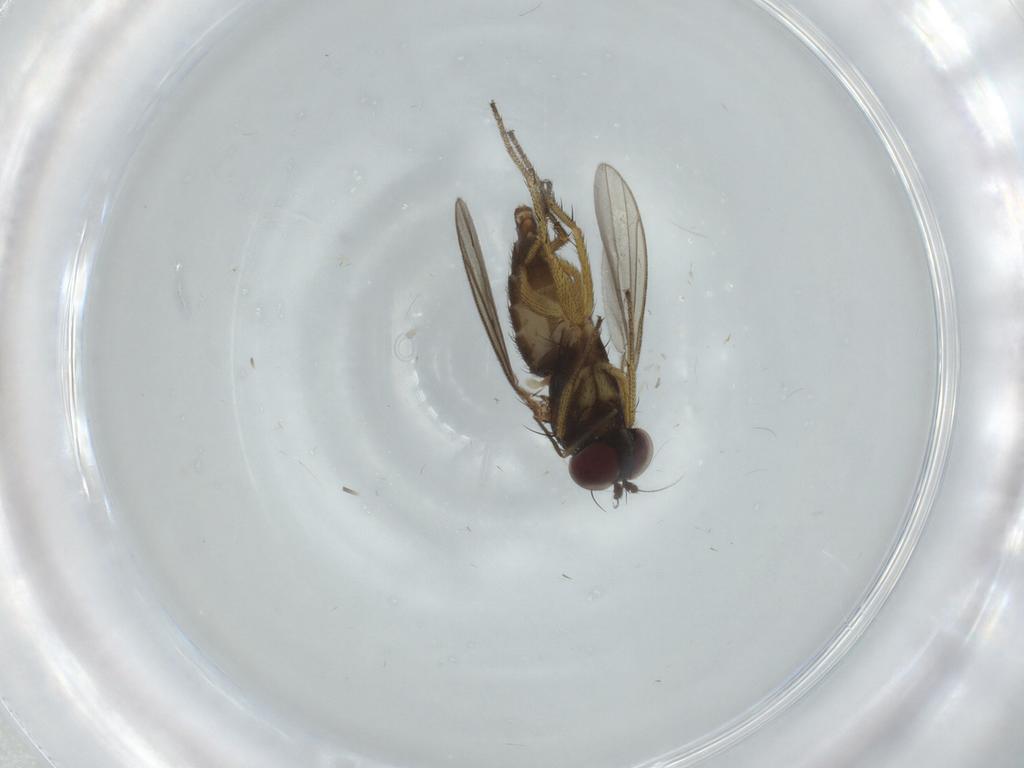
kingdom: Animalia
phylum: Arthropoda
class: Insecta
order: Diptera
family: Dolichopodidae
